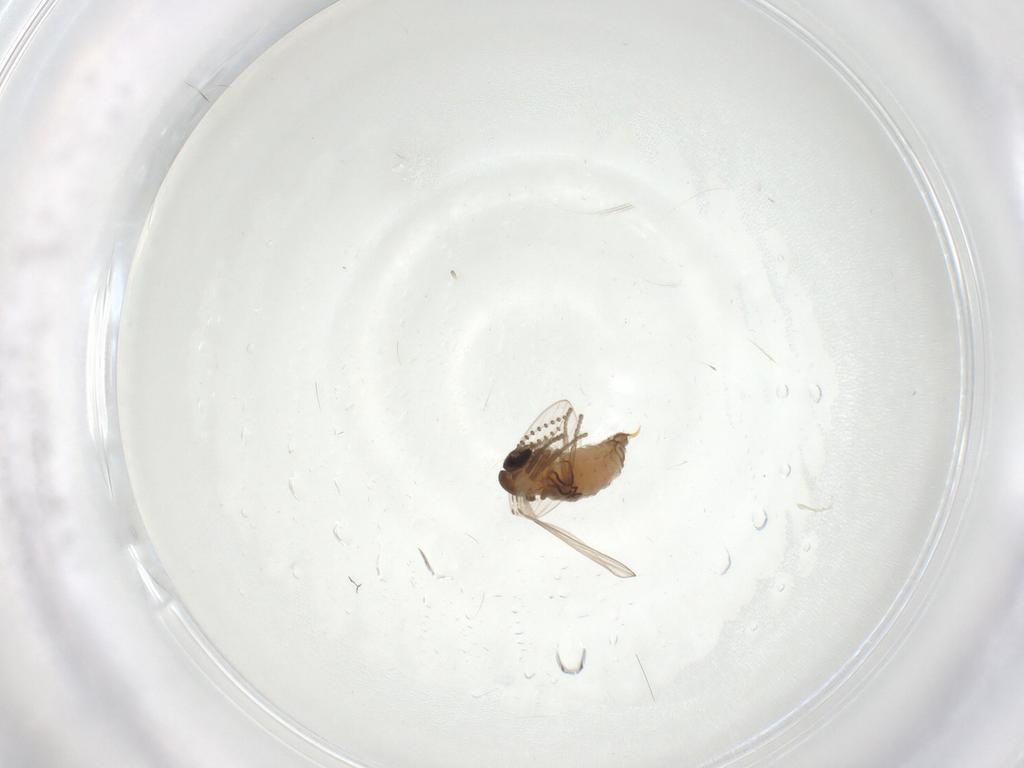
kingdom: Animalia
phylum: Arthropoda
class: Insecta
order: Diptera
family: Psychodidae
